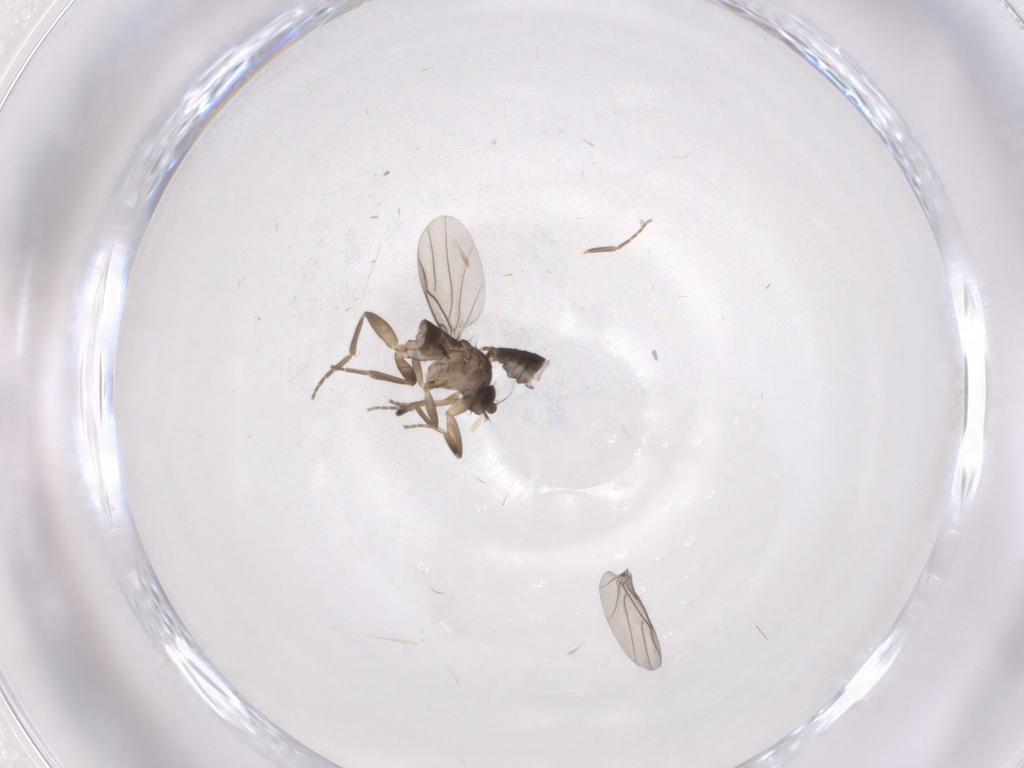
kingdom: Animalia
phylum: Arthropoda
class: Insecta
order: Diptera
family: Phoridae
